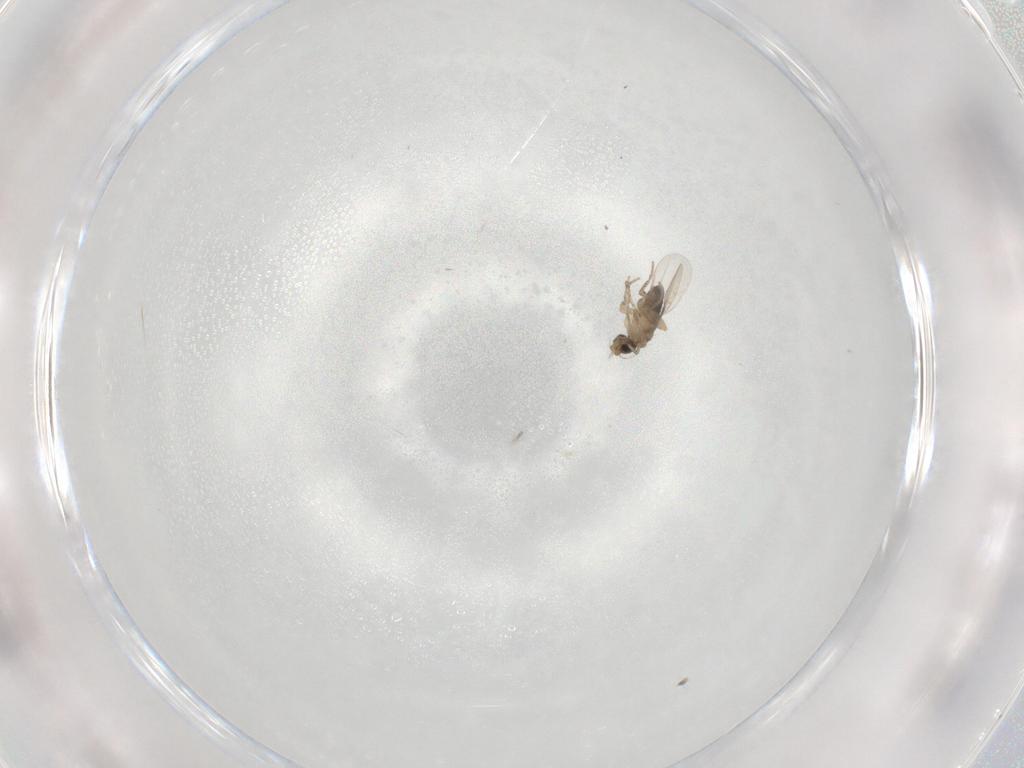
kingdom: Animalia
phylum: Arthropoda
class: Insecta
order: Diptera
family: Phoridae
